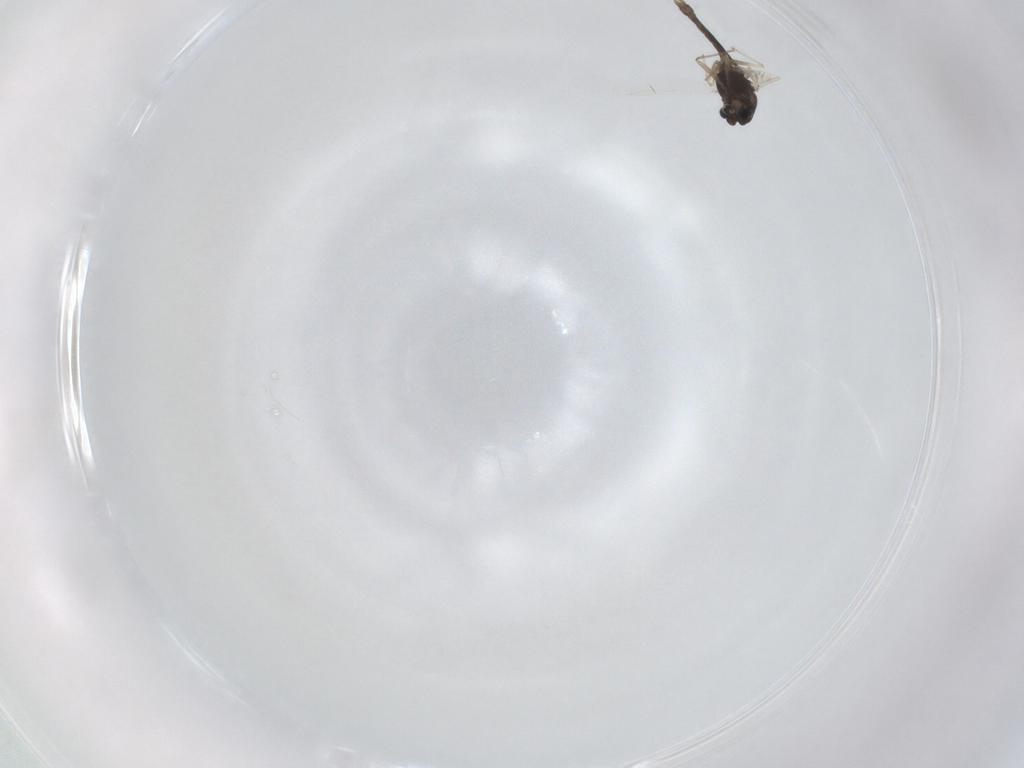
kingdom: Animalia
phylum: Arthropoda
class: Insecta
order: Diptera
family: Chironomidae
